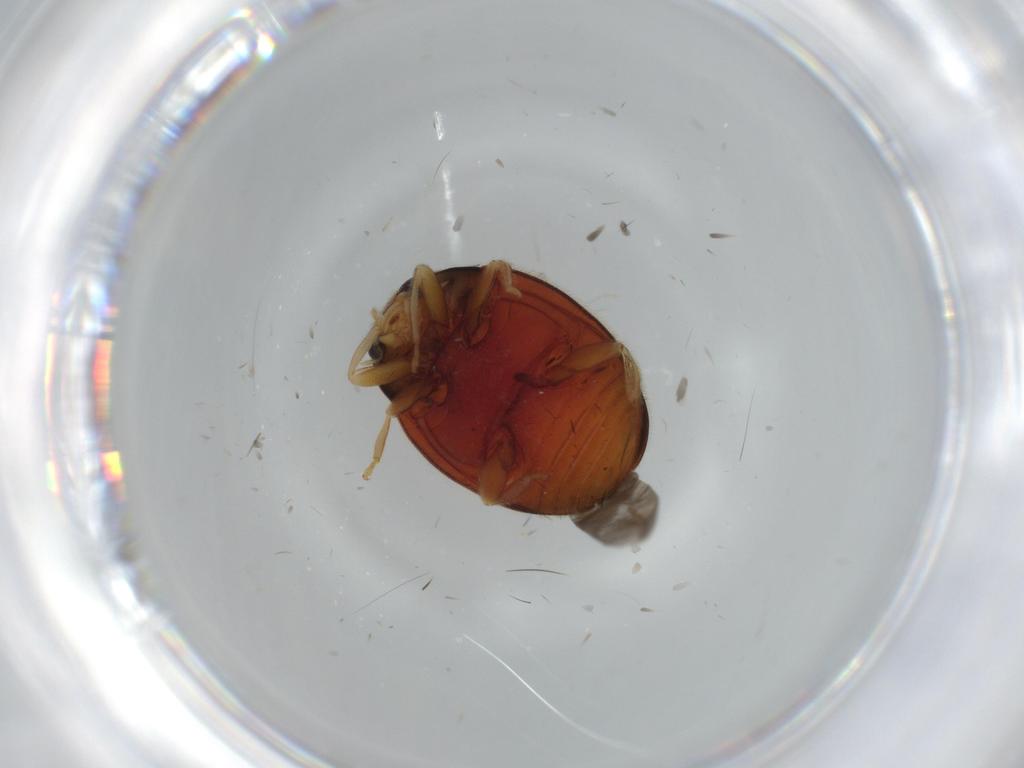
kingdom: Animalia
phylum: Arthropoda
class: Insecta
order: Coleoptera
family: Coccinellidae
